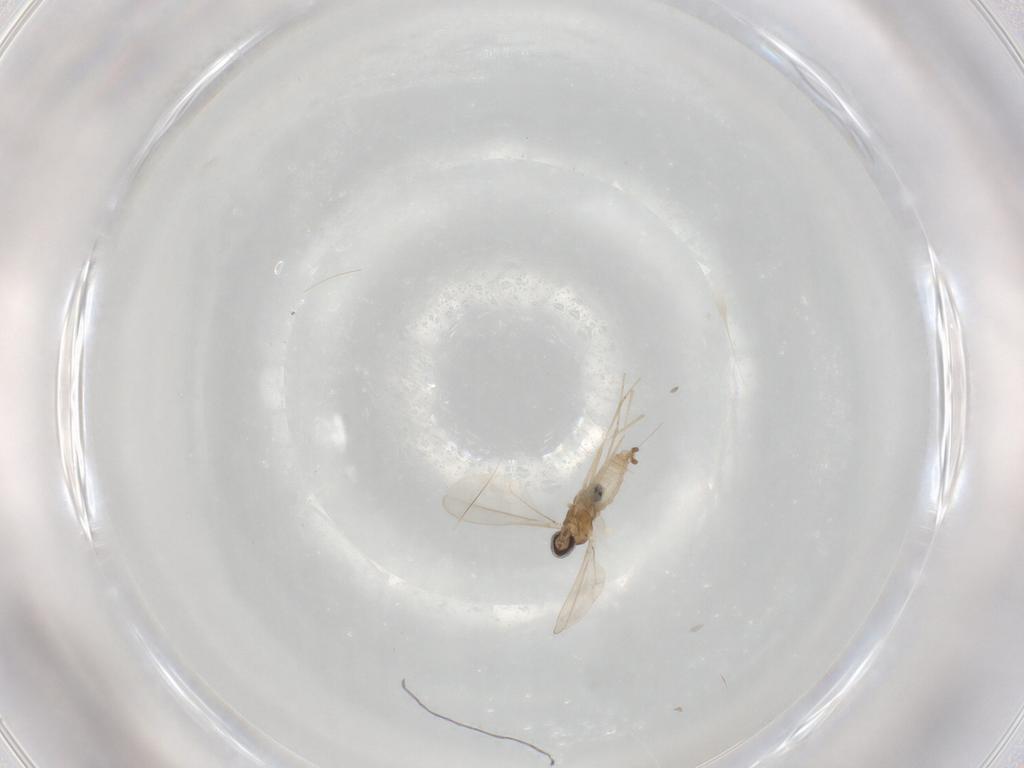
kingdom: Animalia
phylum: Arthropoda
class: Insecta
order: Diptera
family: Cecidomyiidae
